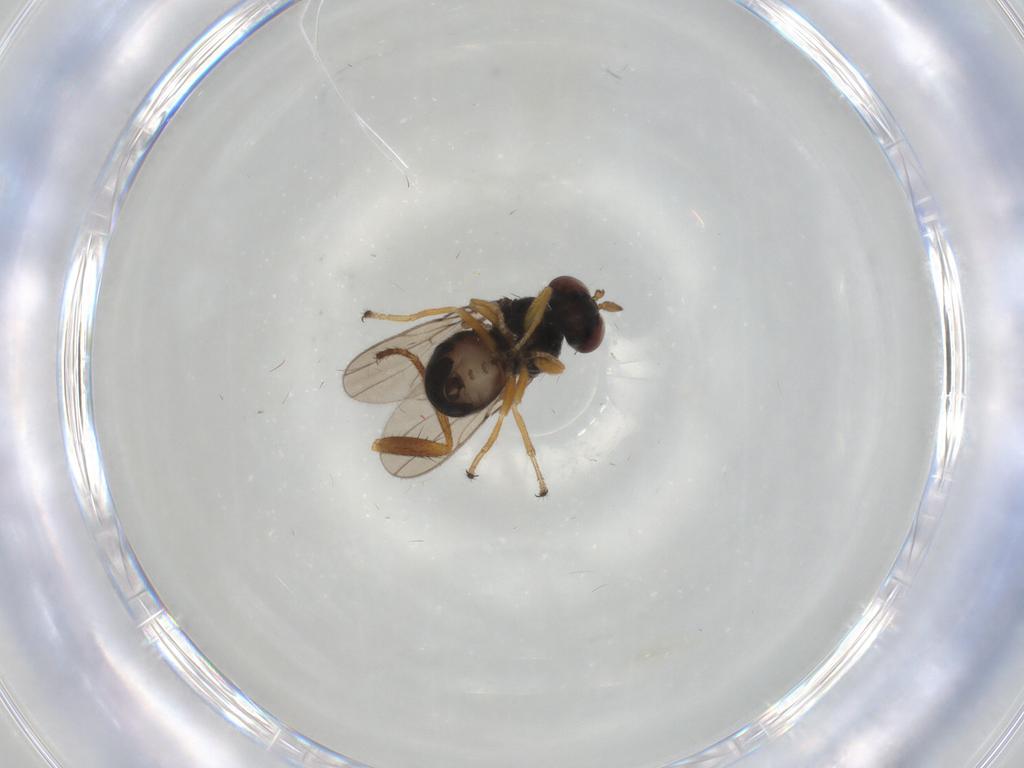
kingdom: Animalia
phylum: Arthropoda
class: Insecta
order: Diptera
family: Ephydridae
